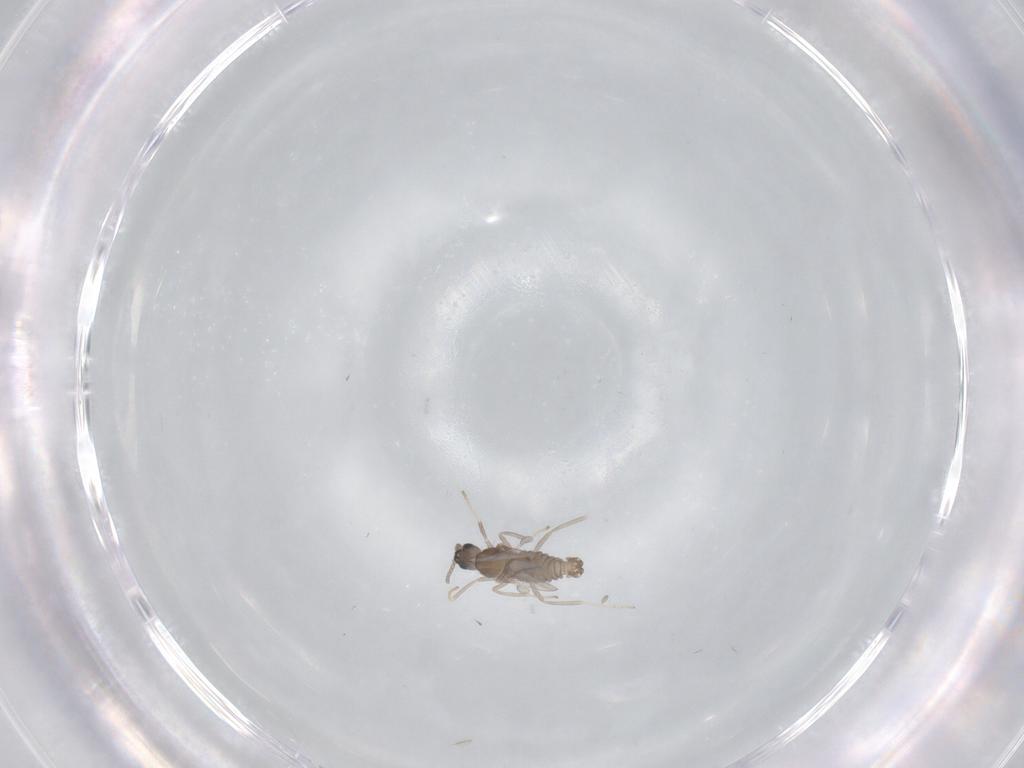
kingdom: Animalia
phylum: Arthropoda
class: Insecta
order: Diptera
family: Cecidomyiidae
